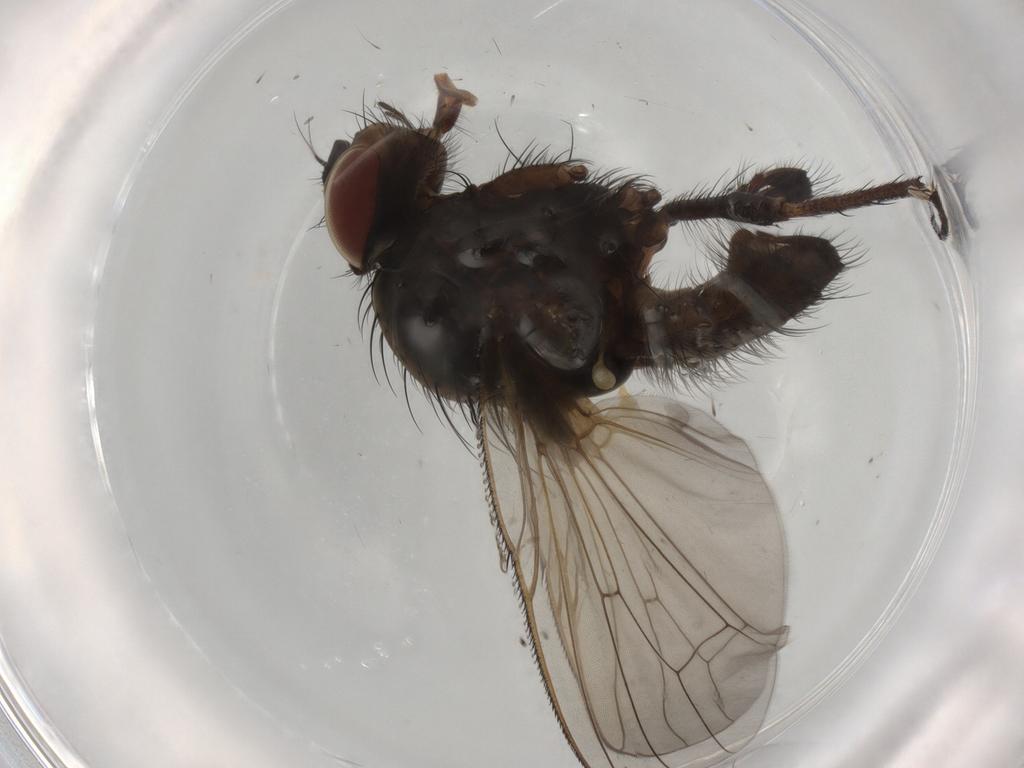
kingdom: Animalia
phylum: Arthropoda
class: Insecta
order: Diptera
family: Anthomyiidae
